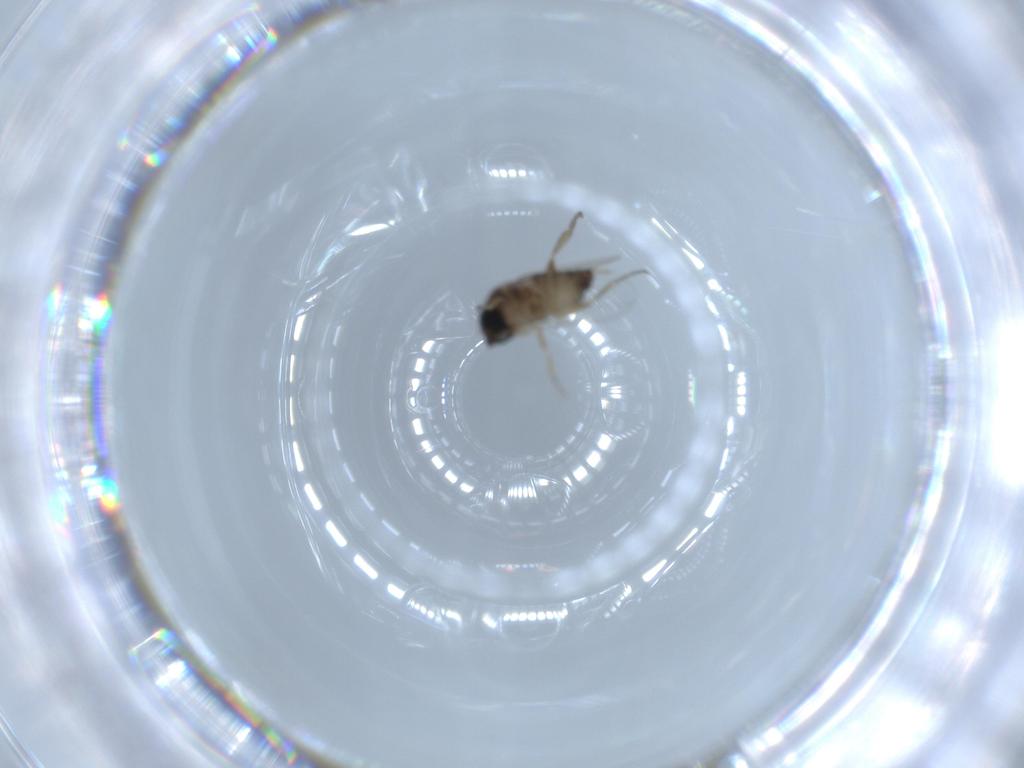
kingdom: Animalia
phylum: Arthropoda
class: Insecta
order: Diptera
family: Phoridae
